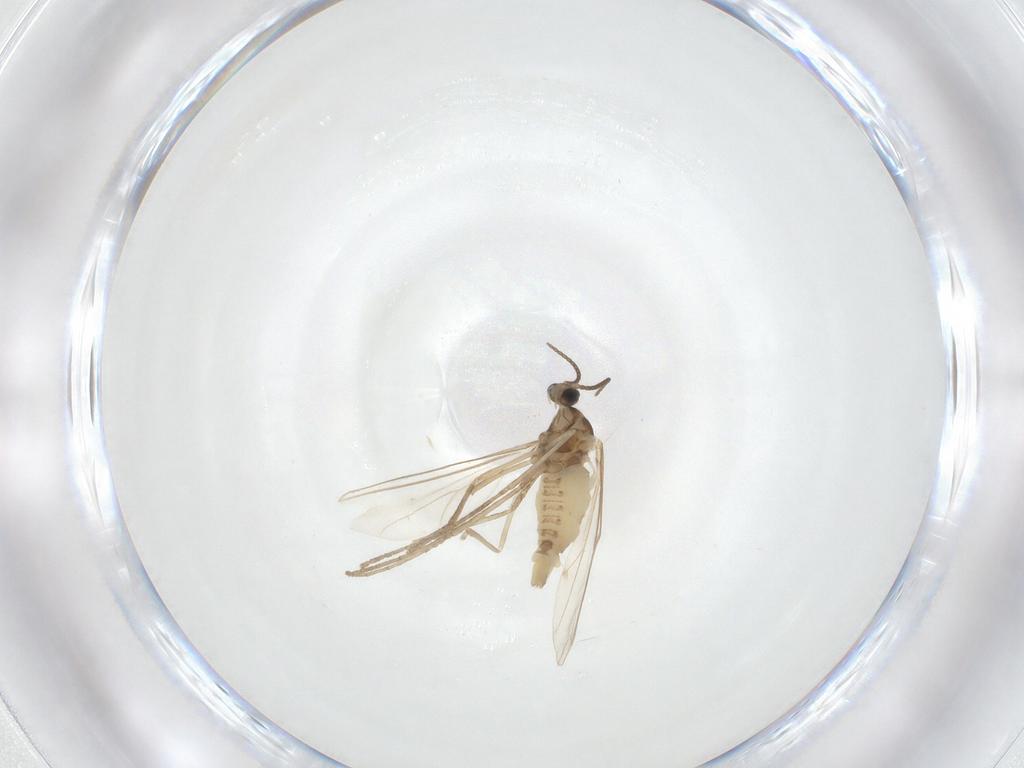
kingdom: Animalia
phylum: Arthropoda
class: Insecta
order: Diptera
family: Cecidomyiidae
